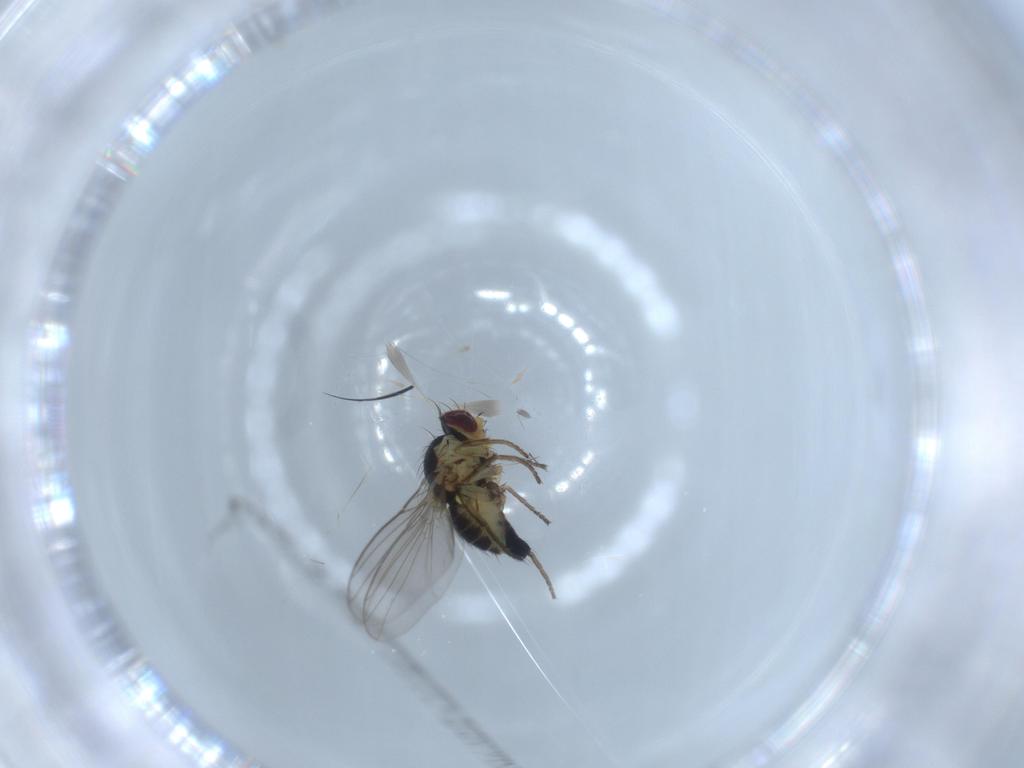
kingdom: Animalia
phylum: Arthropoda
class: Insecta
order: Diptera
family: Agromyzidae
